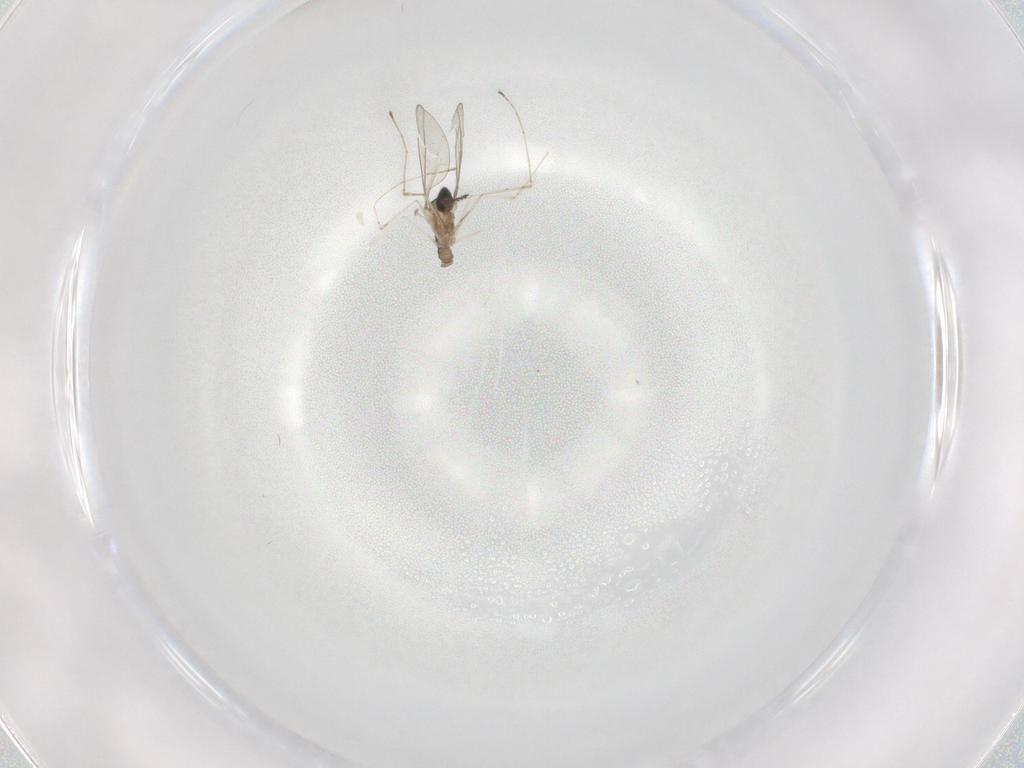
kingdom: Animalia
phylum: Arthropoda
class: Insecta
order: Diptera
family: Cecidomyiidae
